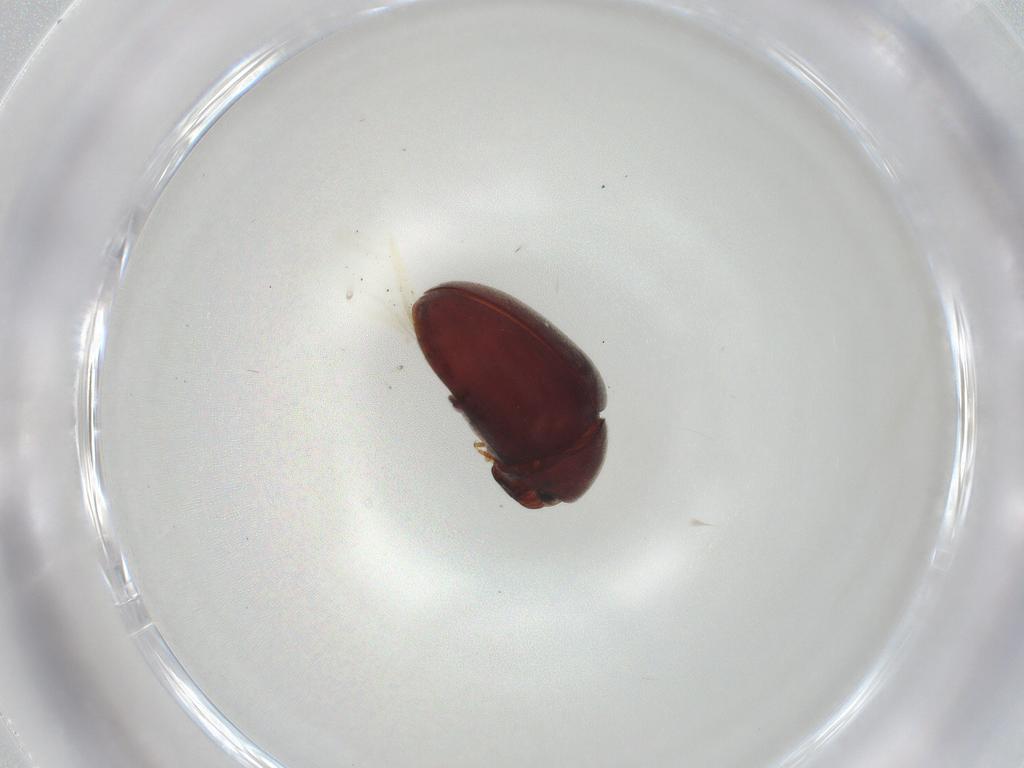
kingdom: Animalia
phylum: Arthropoda
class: Insecta
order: Coleoptera
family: Anobiidae
